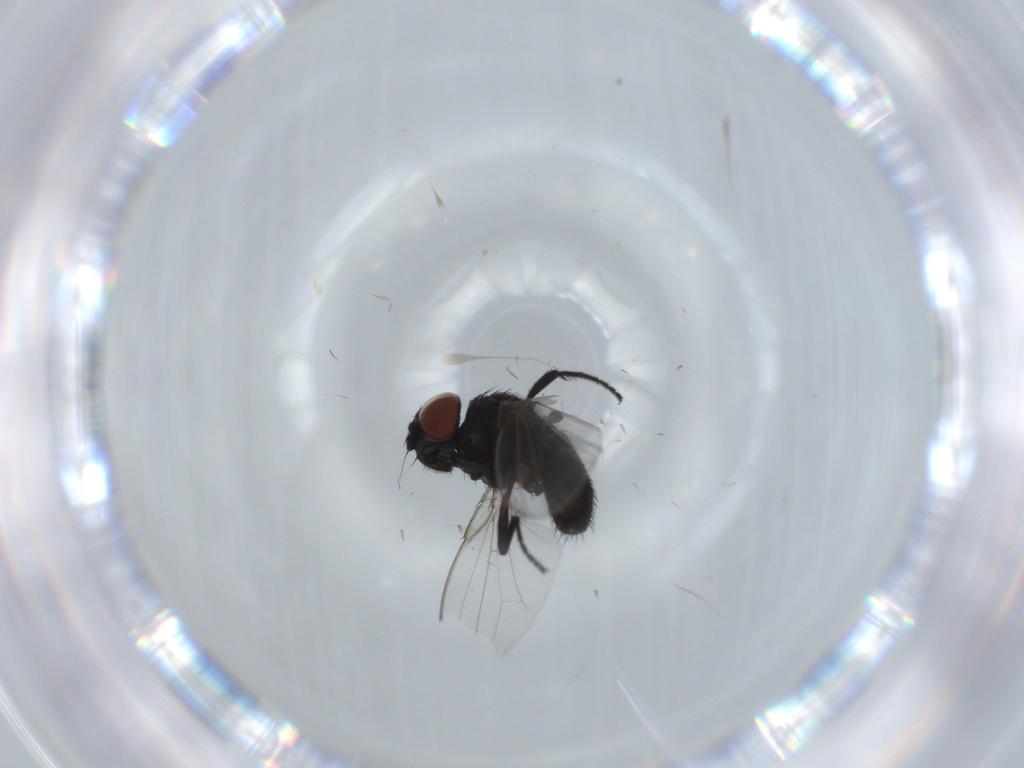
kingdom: Animalia
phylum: Arthropoda
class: Insecta
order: Diptera
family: Milichiidae
